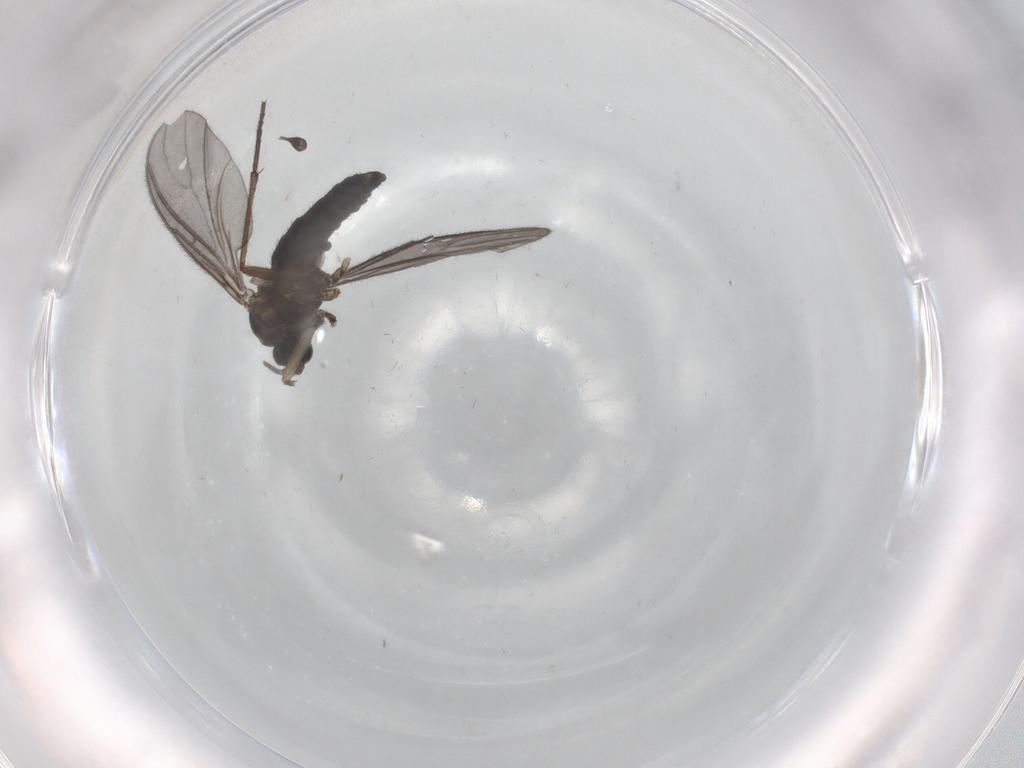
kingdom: Animalia
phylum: Arthropoda
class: Insecta
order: Diptera
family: Sciaridae
